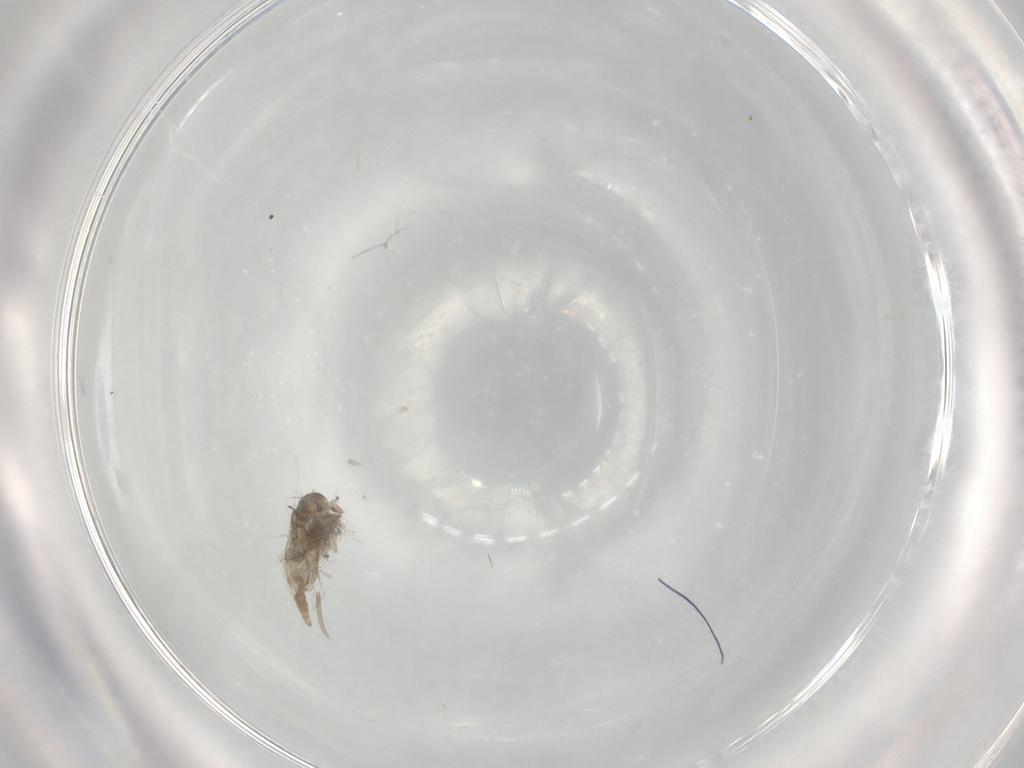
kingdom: Animalia
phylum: Arthropoda
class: Insecta
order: Diptera
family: Cecidomyiidae
